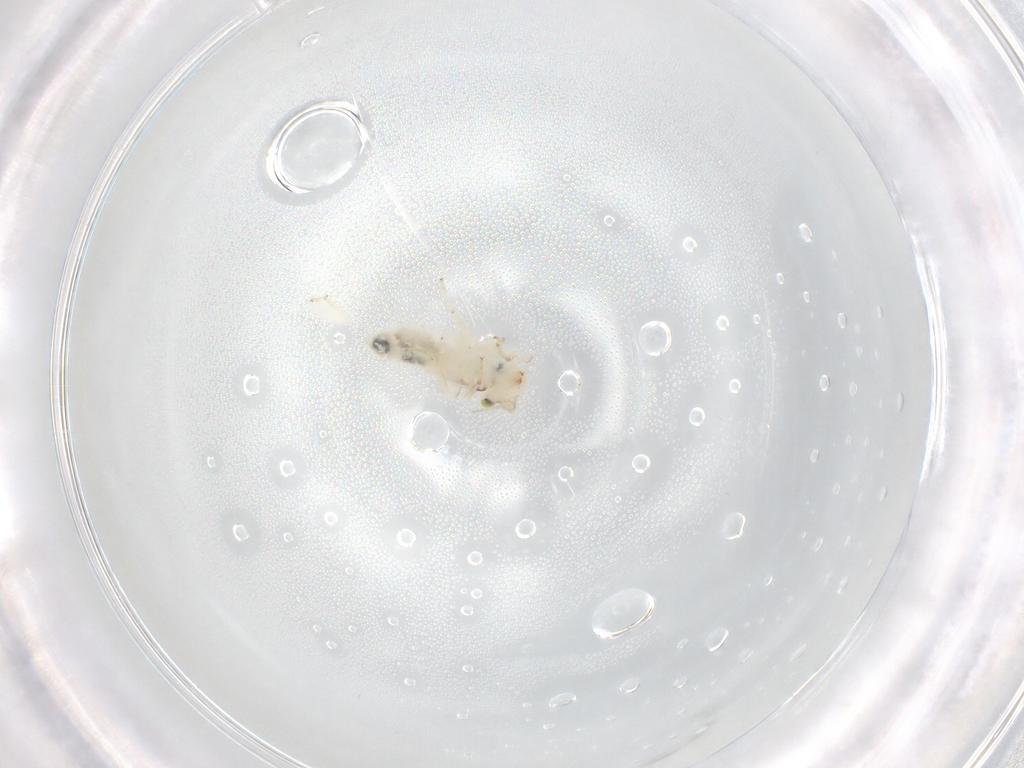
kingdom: Animalia
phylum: Arthropoda
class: Insecta
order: Psocodea
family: Lepidopsocidae
